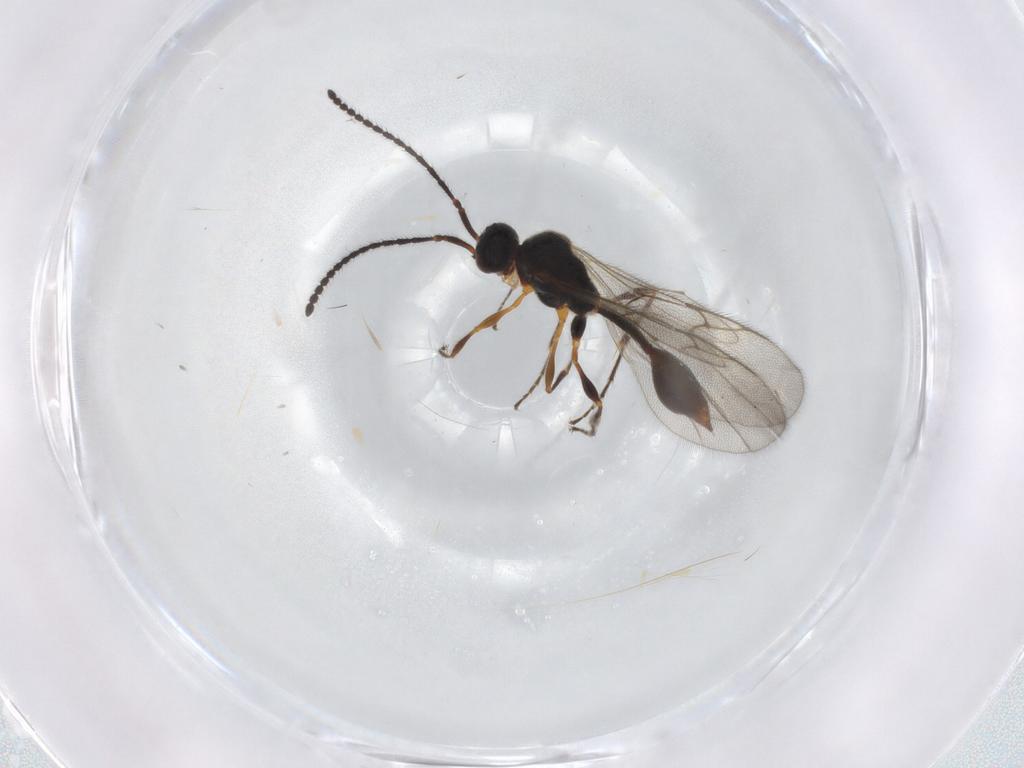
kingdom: Animalia
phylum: Arthropoda
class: Insecta
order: Hymenoptera
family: Diapriidae
